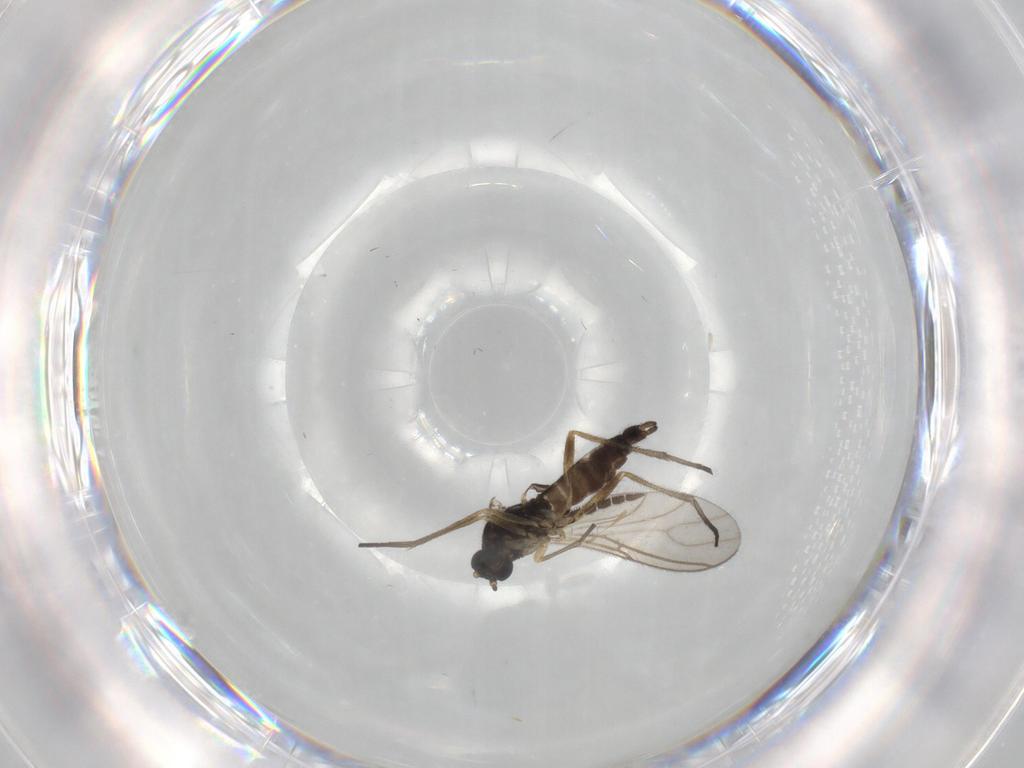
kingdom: Animalia
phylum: Arthropoda
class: Insecta
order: Diptera
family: Sciaridae
